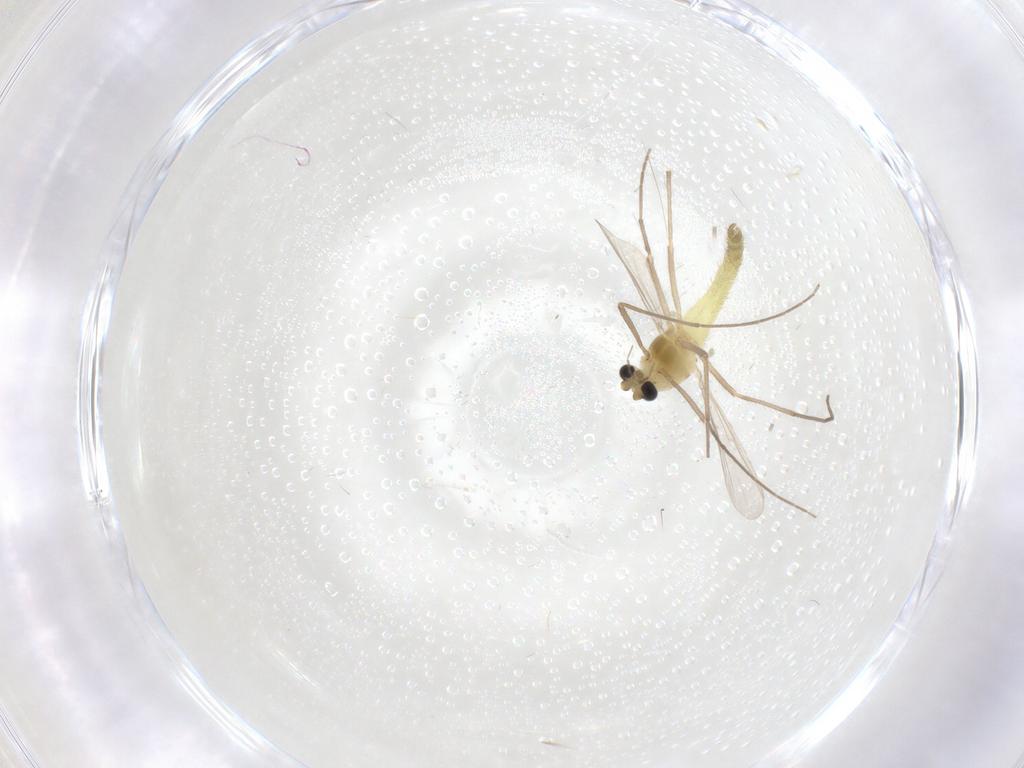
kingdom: Animalia
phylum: Arthropoda
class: Insecta
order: Diptera
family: Chironomidae
